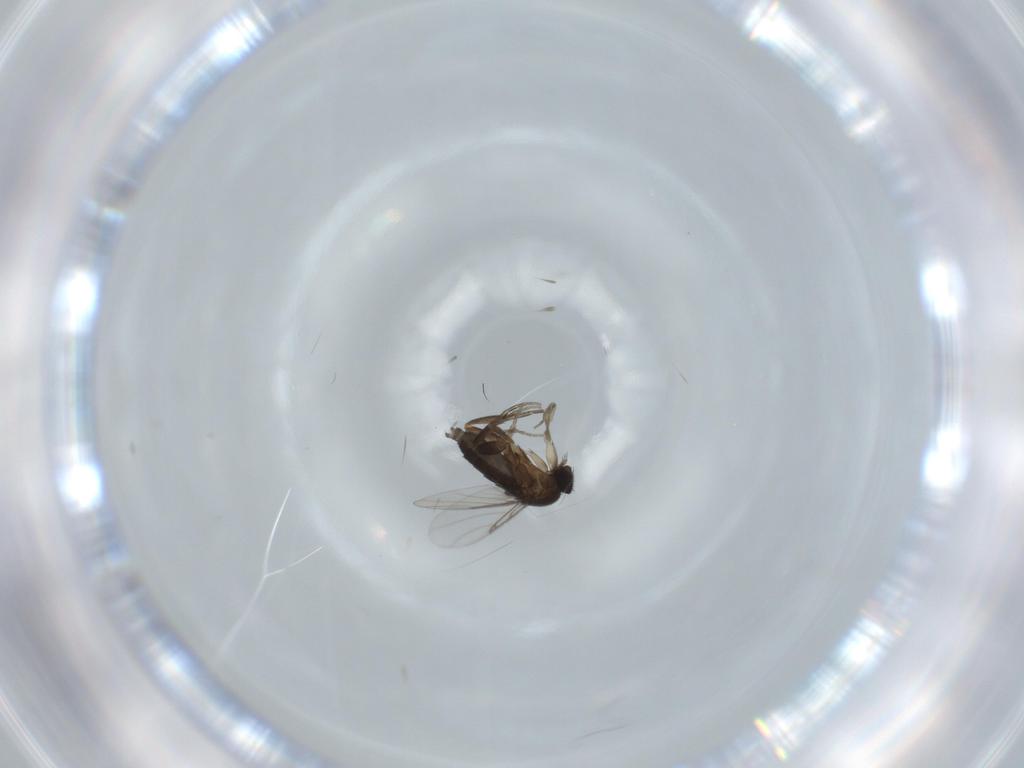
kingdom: Animalia
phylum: Arthropoda
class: Insecta
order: Diptera
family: Phoridae
